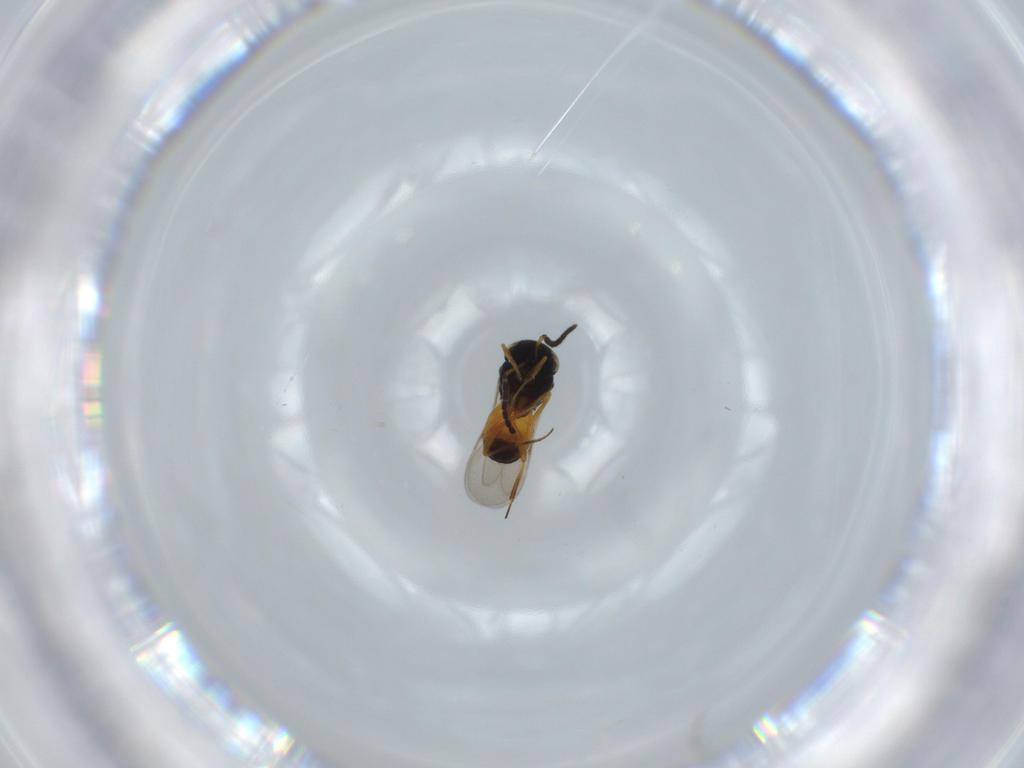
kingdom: Animalia
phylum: Arthropoda
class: Insecta
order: Hymenoptera
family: Scelionidae
